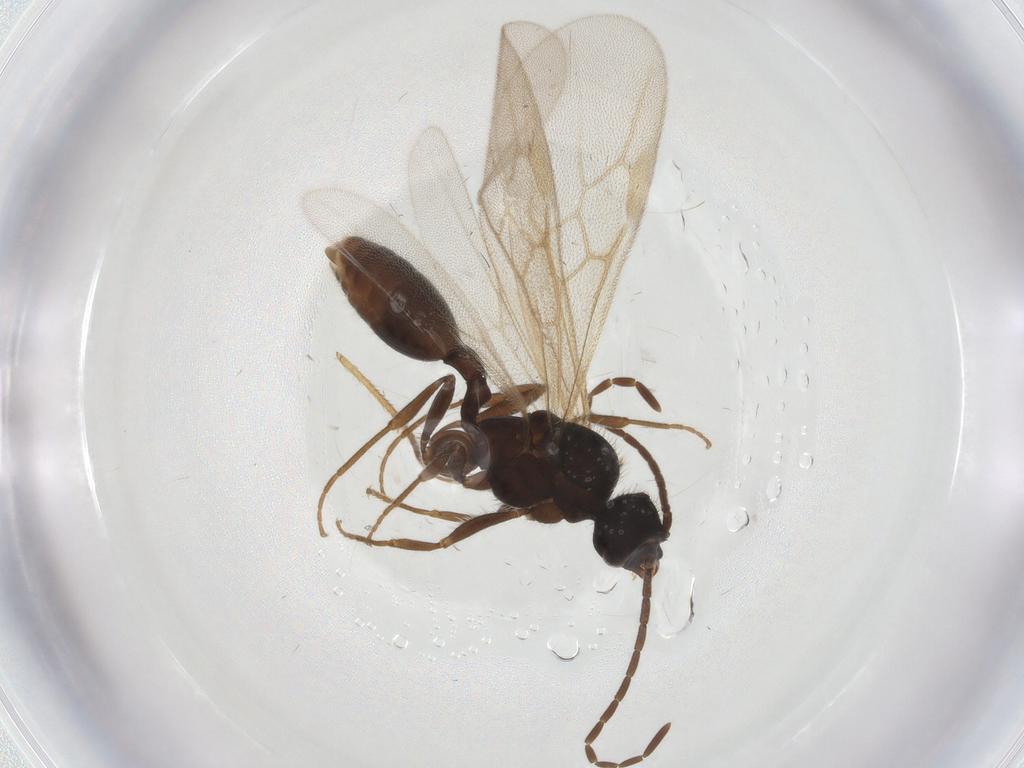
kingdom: Animalia
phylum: Arthropoda
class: Insecta
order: Hymenoptera
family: Formicidae
